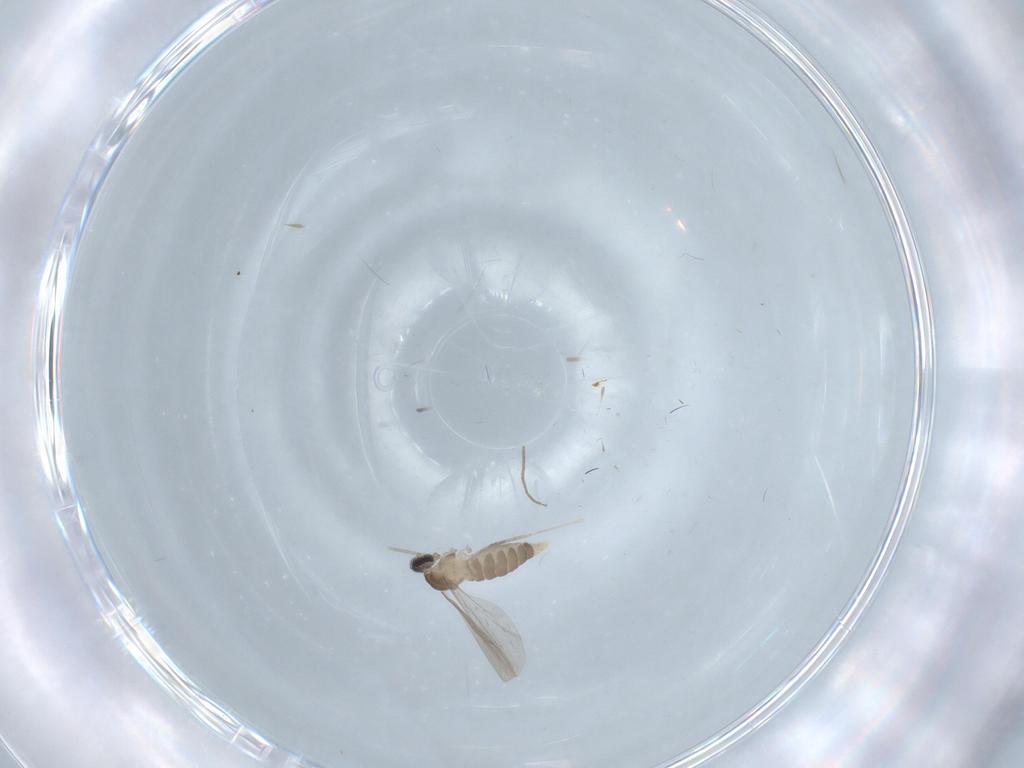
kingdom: Animalia
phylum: Arthropoda
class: Insecta
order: Diptera
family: Cecidomyiidae
